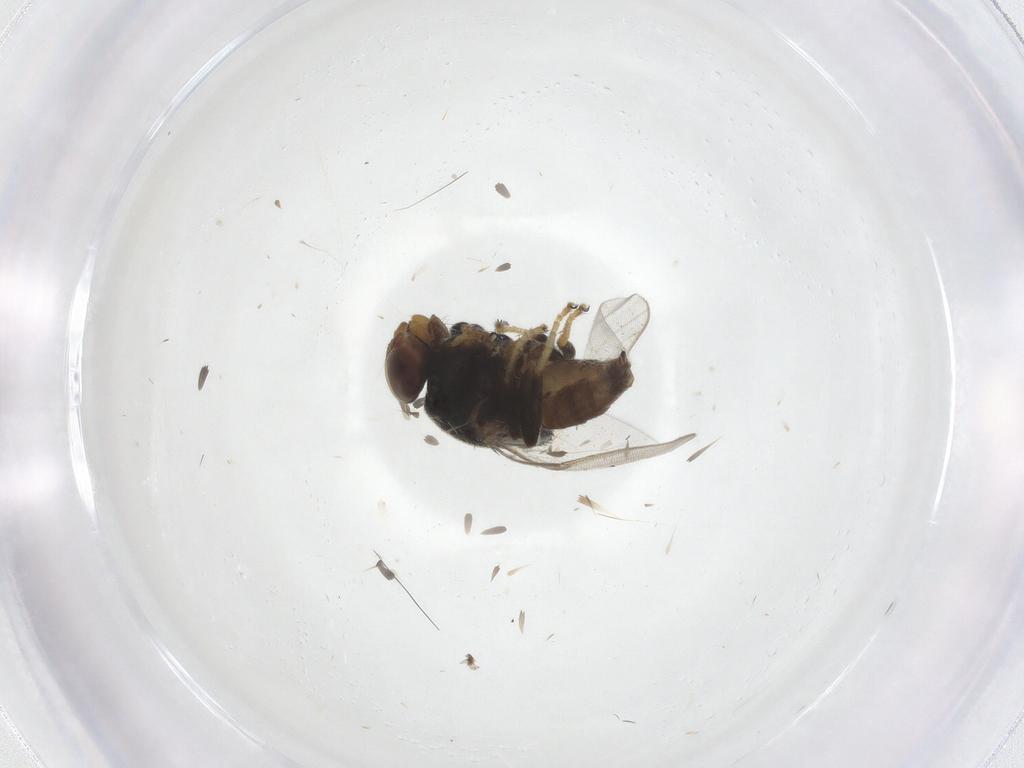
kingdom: Animalia
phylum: Arthropoda
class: Insecta
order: Diptera
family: Chloropidae
